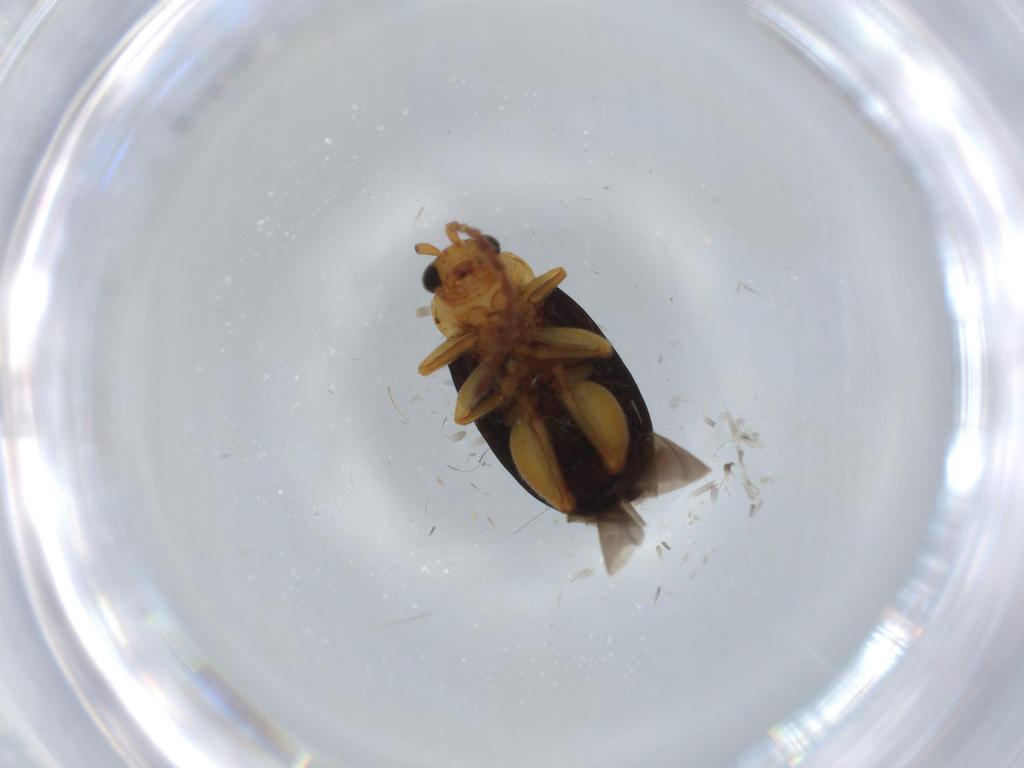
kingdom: Animalia
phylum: Arthropoda
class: Insecta
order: Coleoptera
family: Chrysomelidae
